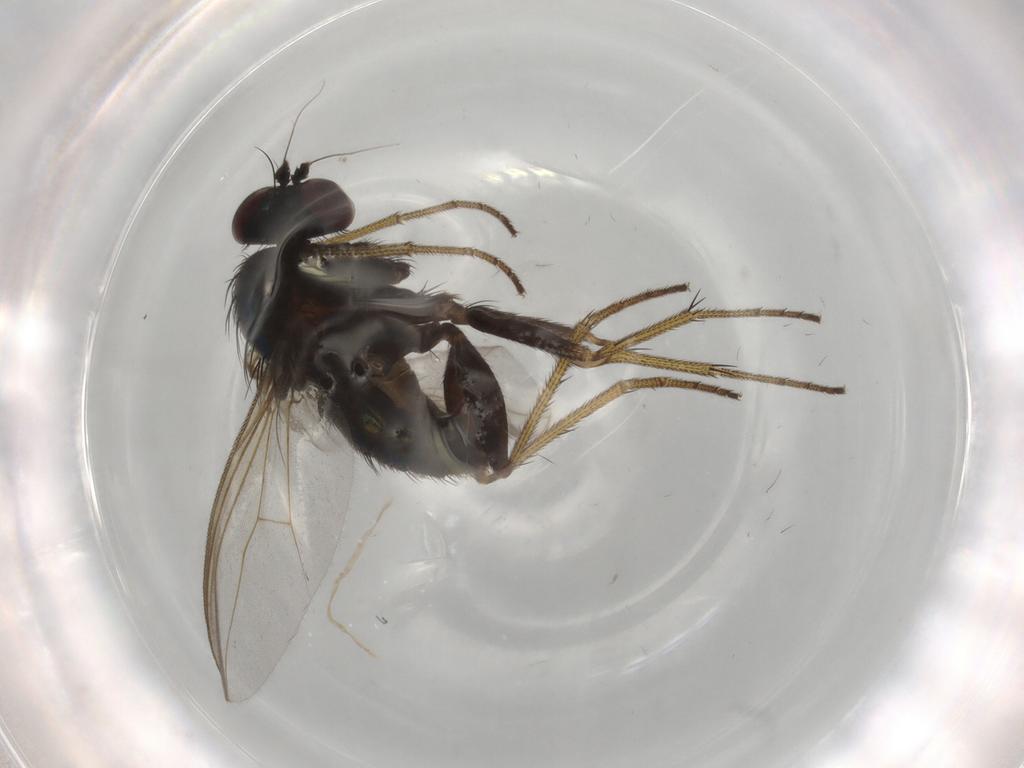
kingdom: Animalia
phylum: Arthropoda
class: Insecta
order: Diptera
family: Dolichopodidae
